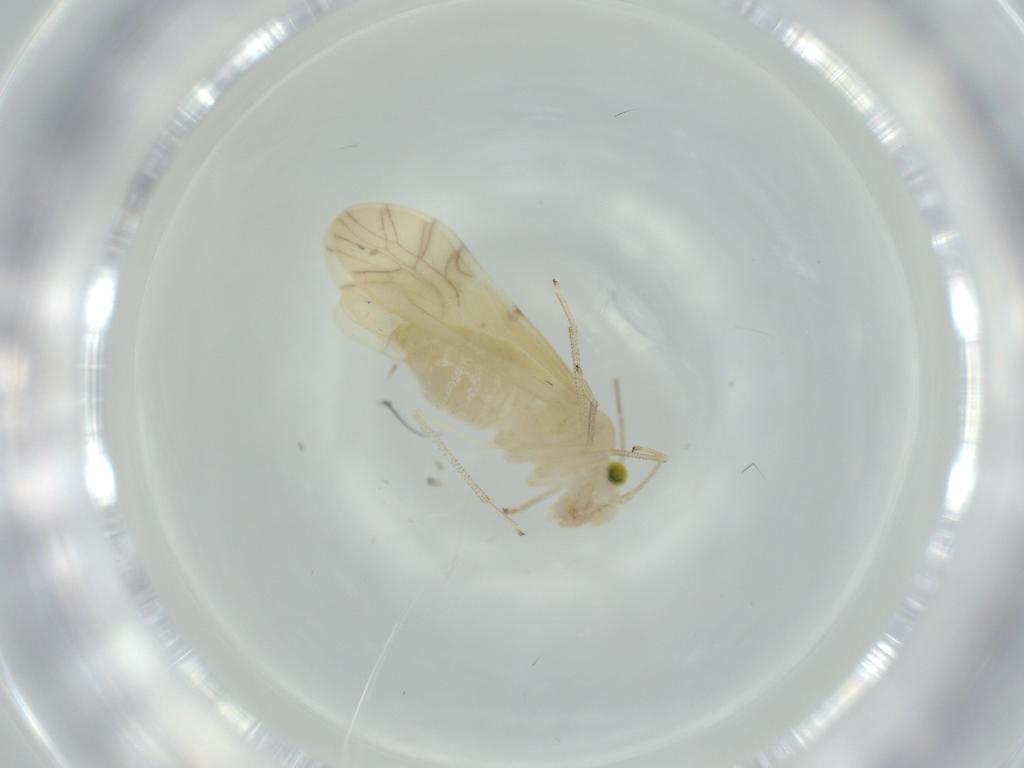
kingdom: Animalia
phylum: Arthropoda
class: Insecta
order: Psocodea
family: Caeciliusidae
